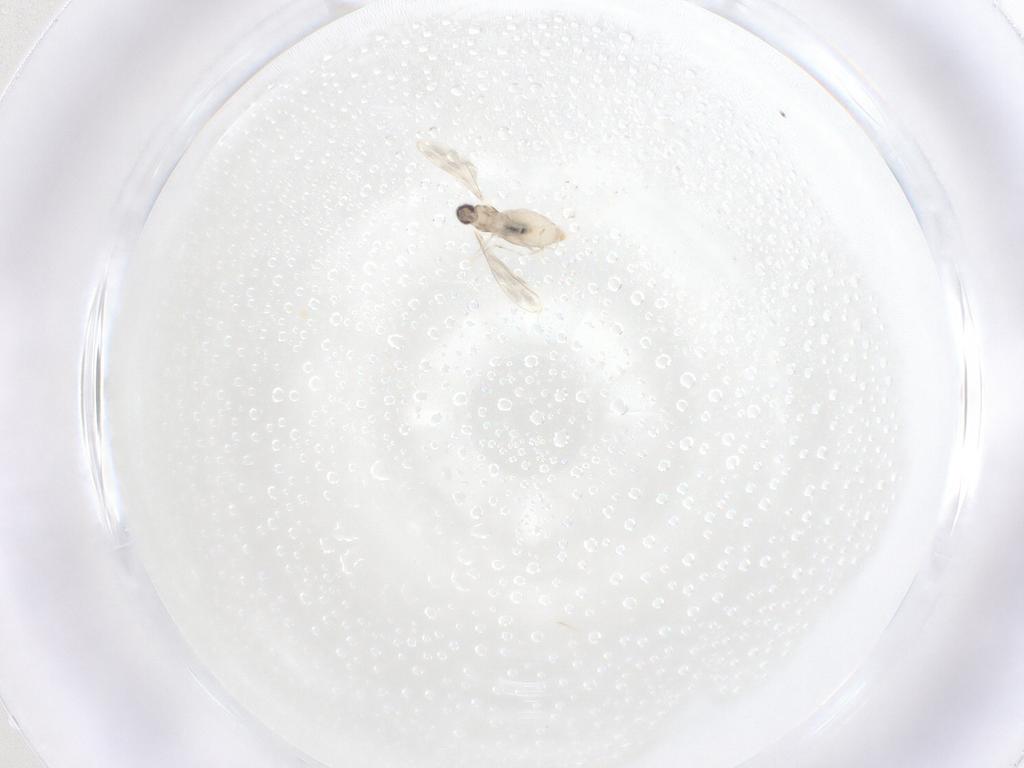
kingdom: Animalia
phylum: Arthropoda
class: Insecta
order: Diptera
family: Cecidomyiidae
